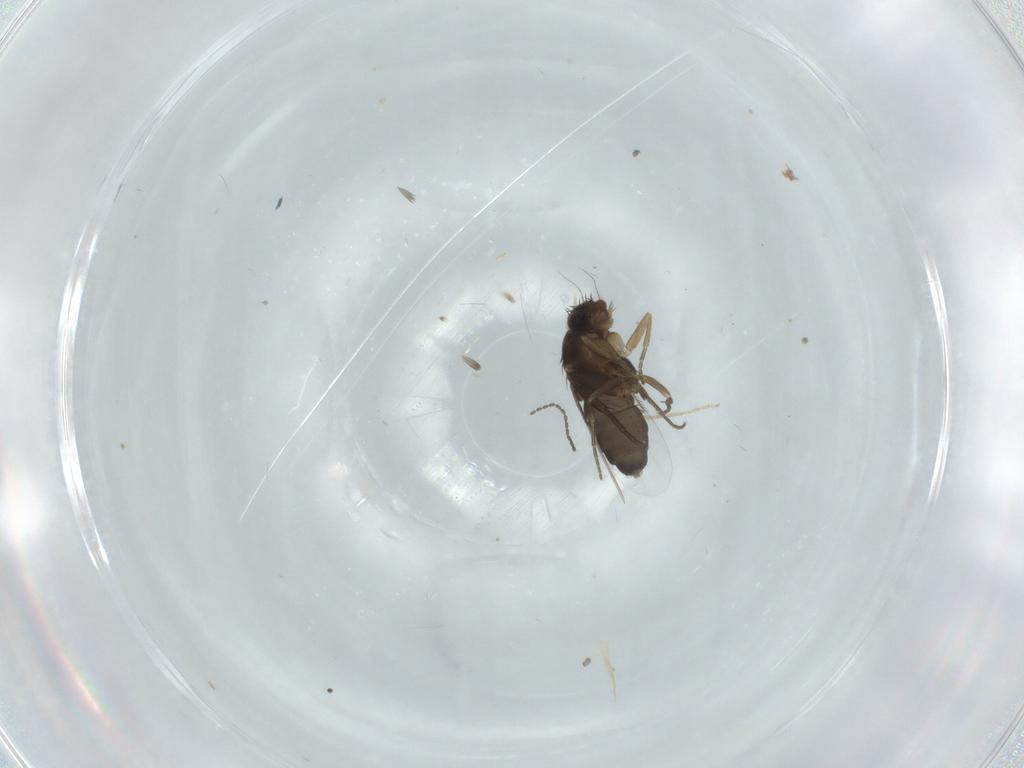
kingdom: Animalia
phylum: Arthropoda
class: Insecta
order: Diptera
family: Phoridae
